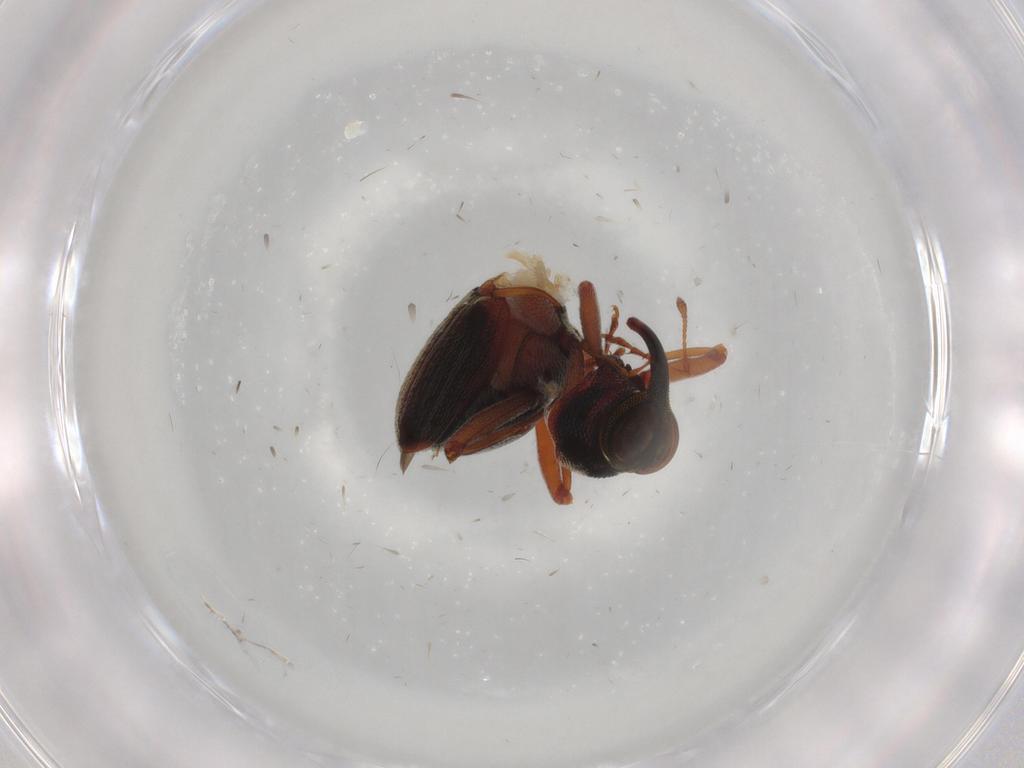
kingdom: Animalia
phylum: Arthropoda
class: Insecta
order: Coleoptera
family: Curculionidae
